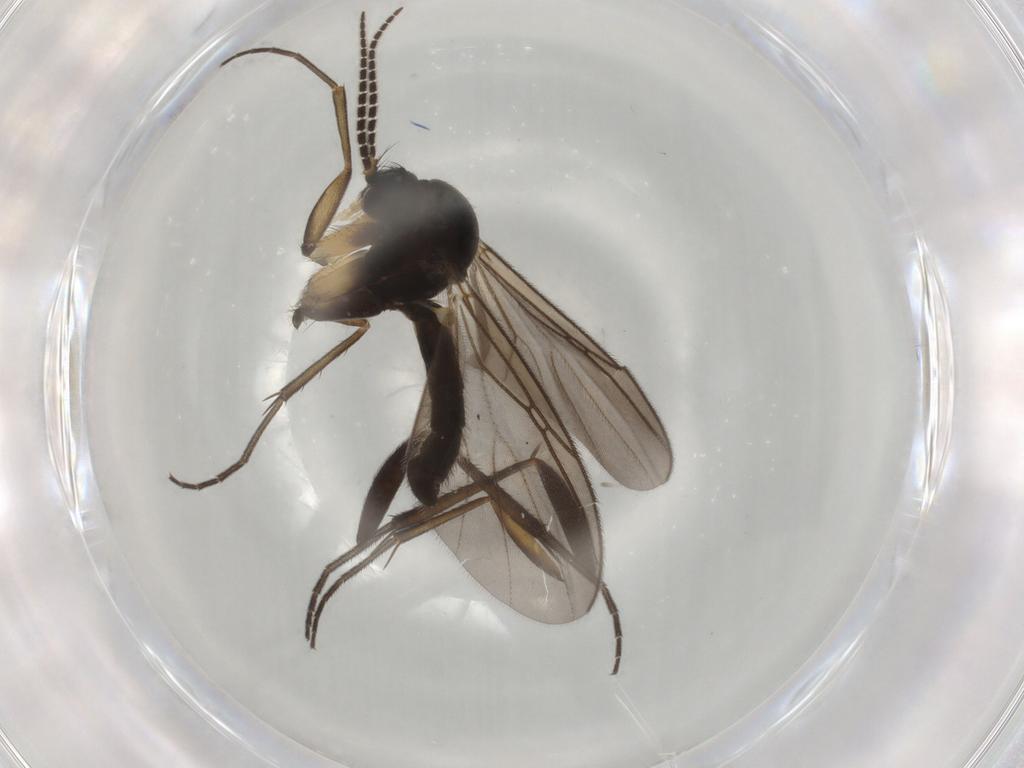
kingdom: Animalia
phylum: Arthropoda
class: Insecta
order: Diptera
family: Mycetophilidae
